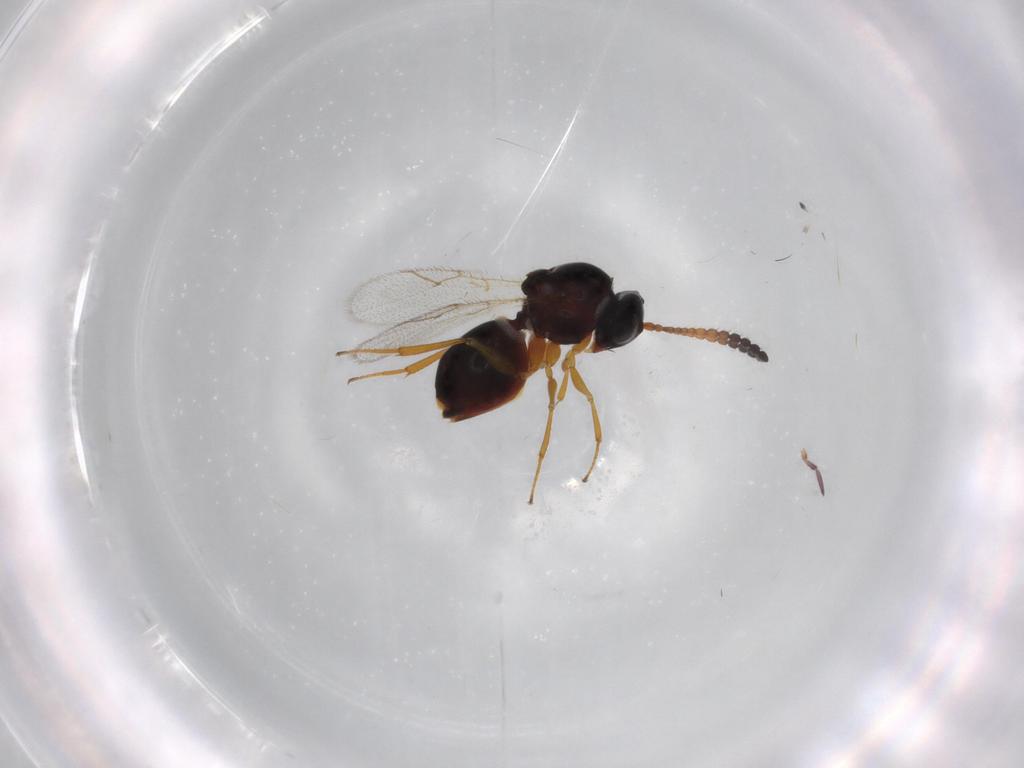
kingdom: Animalia
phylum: Arthropoda
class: Insecta
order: Hymenoptera
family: Figitidae
